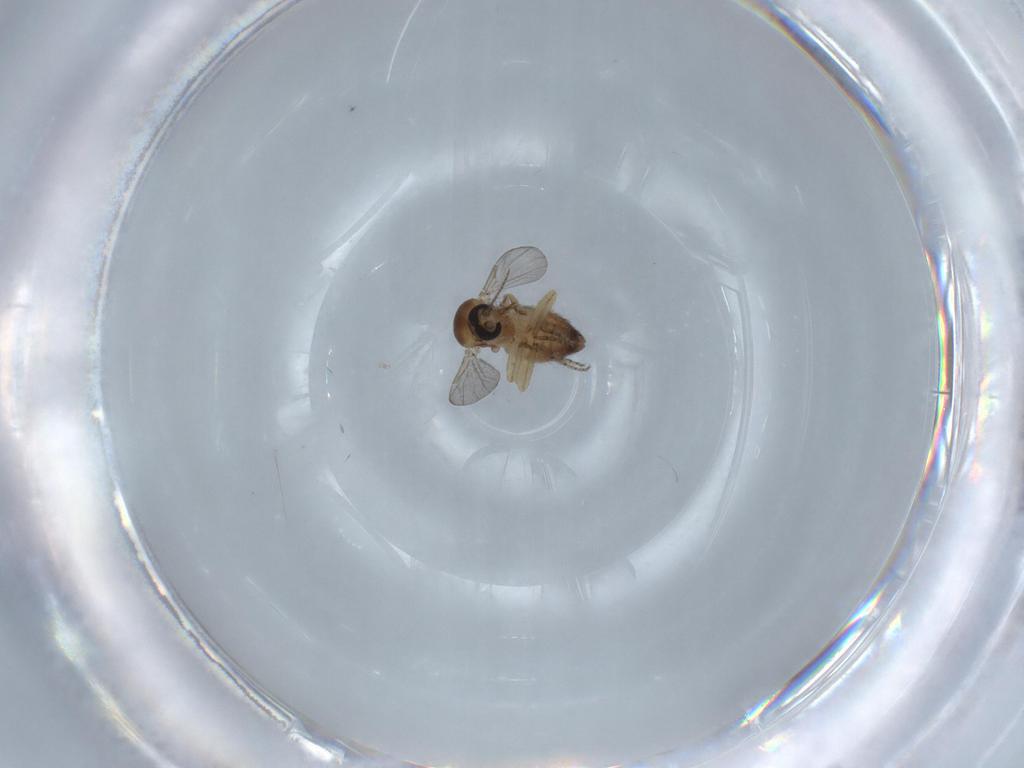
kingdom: Animalia
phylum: Arthropoda
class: Insecta
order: Diptera
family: Ceratopogonidae
